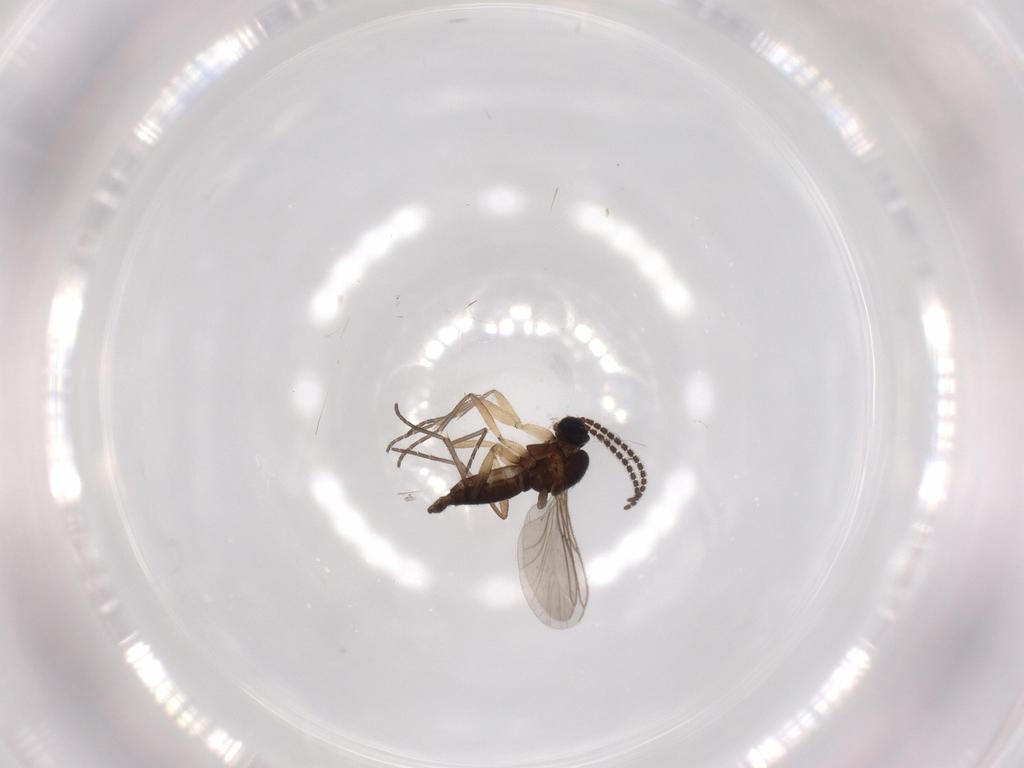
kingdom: Animalia
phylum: Arthropoda
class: Insecta
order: Diptera
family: Sciaridae
